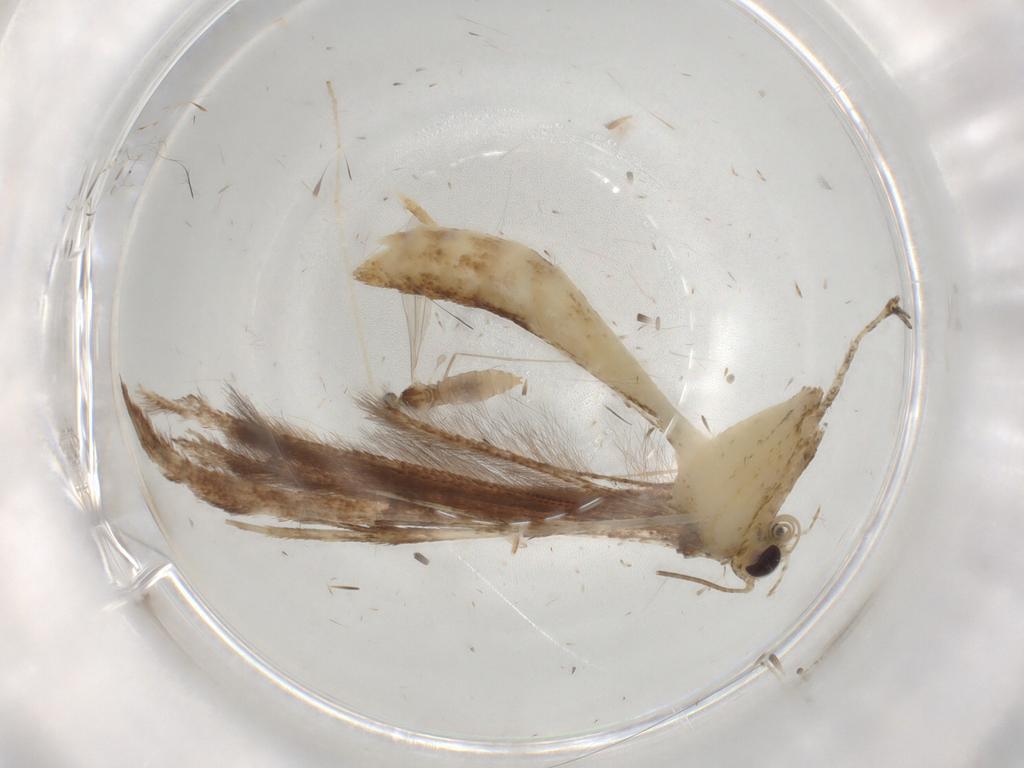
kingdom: Animalia
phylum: Arthropoda
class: Insecta
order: Diptera
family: Cecidomyiidae
